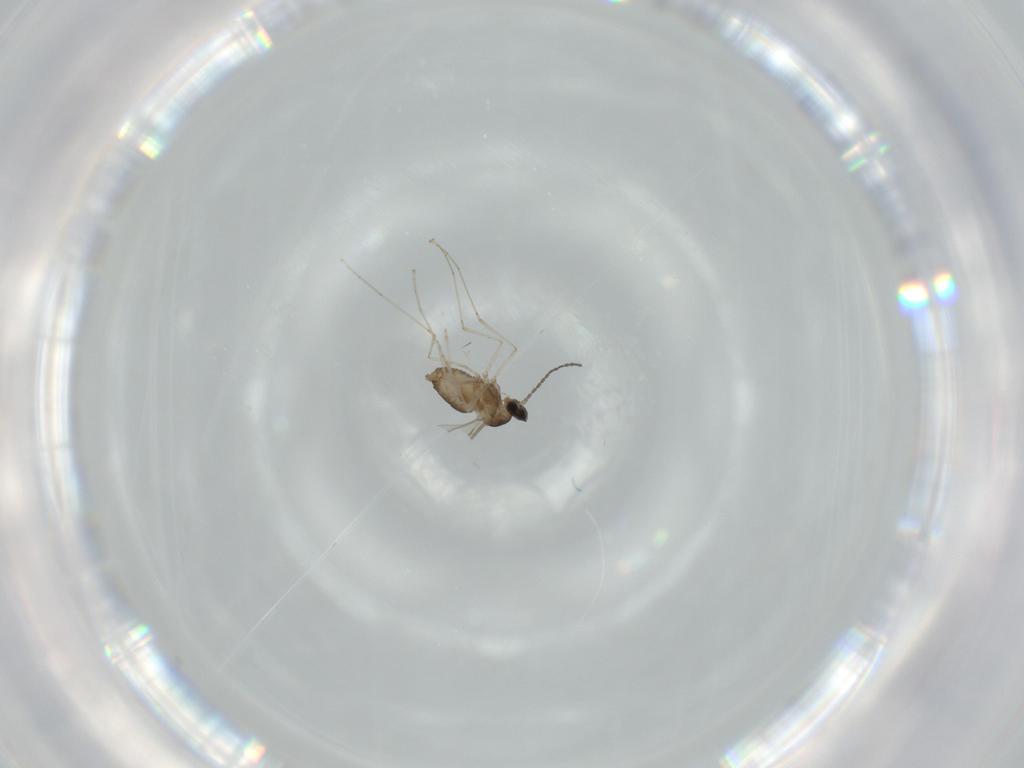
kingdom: Animalia
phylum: Arthropoda
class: Insecta
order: Diptera
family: Cecidomyiidae
